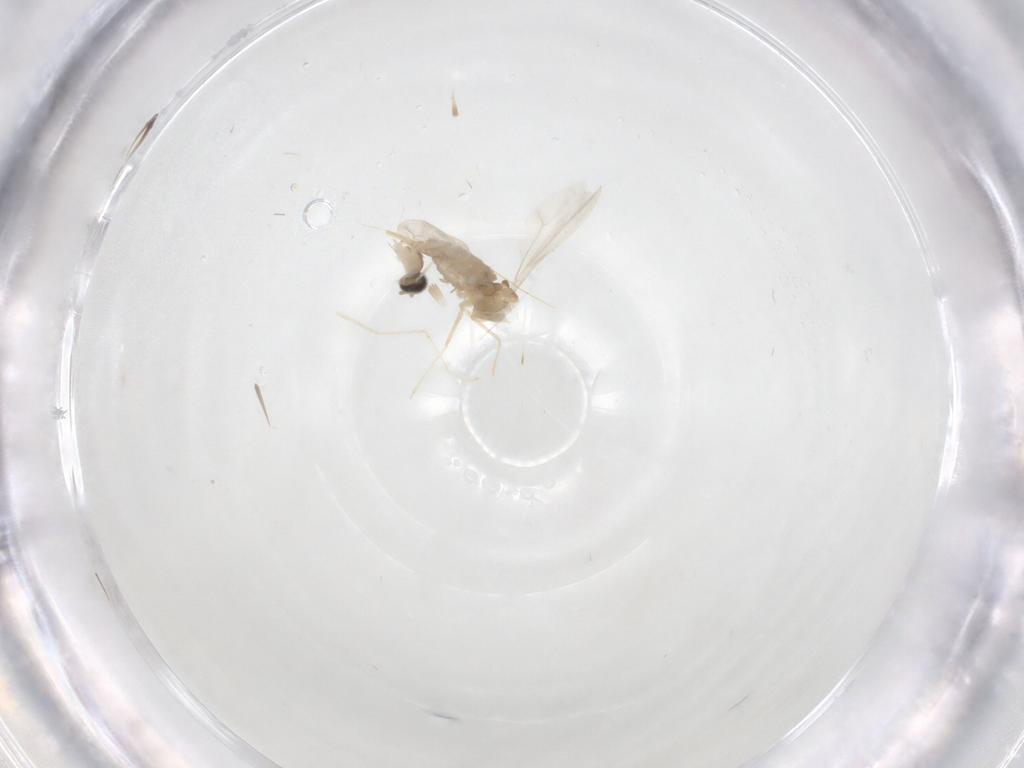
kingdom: Animalia
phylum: Arthropoda
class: Insecta
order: Diptera
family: Cecidomyiidae
